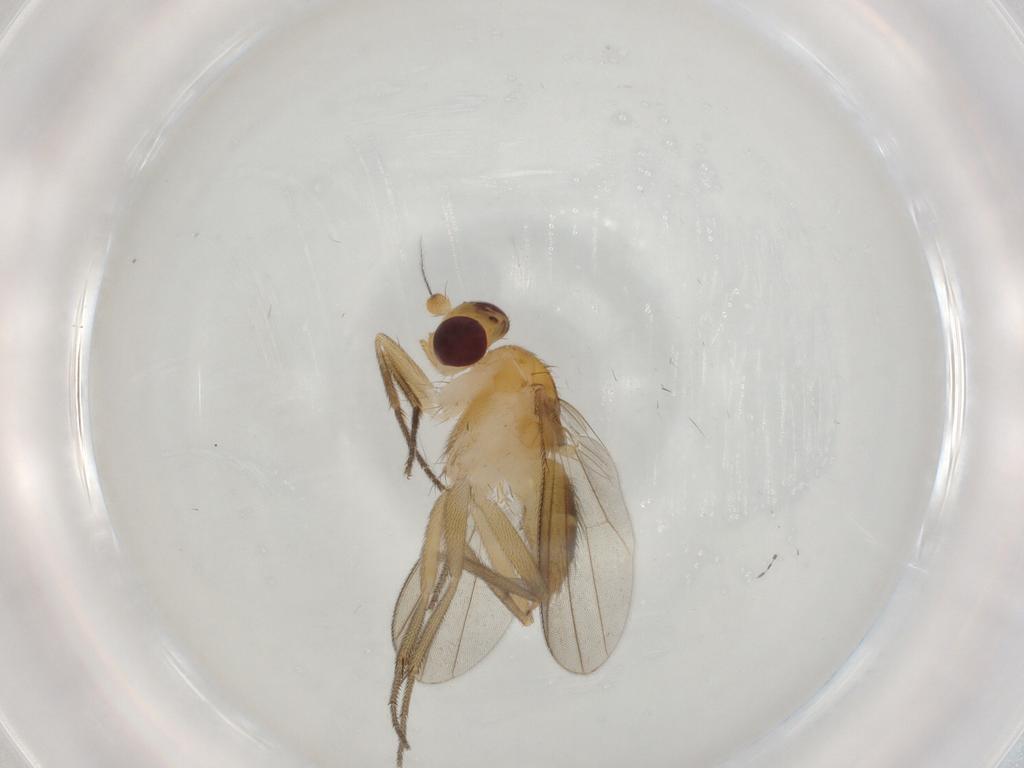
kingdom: Animalia
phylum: Arthropoda
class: Insecta
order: Diptera
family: Clusiidae
